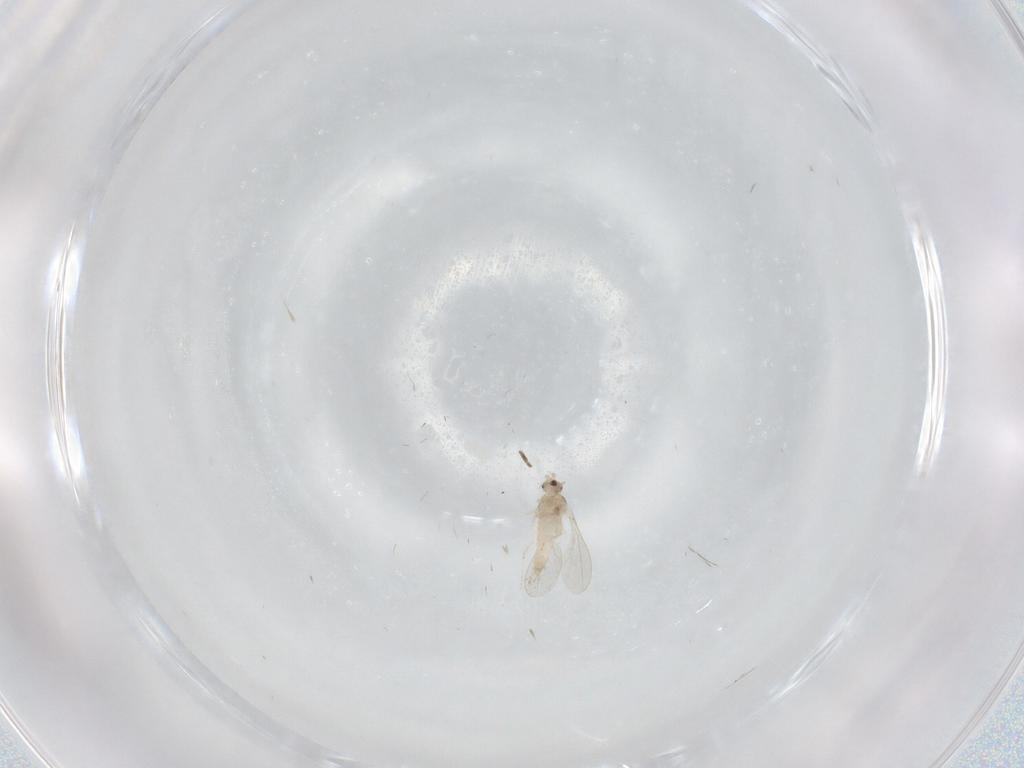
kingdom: Animalia
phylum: Arthropoda
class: Insecta
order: Diptera
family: Cecidomyiidae
